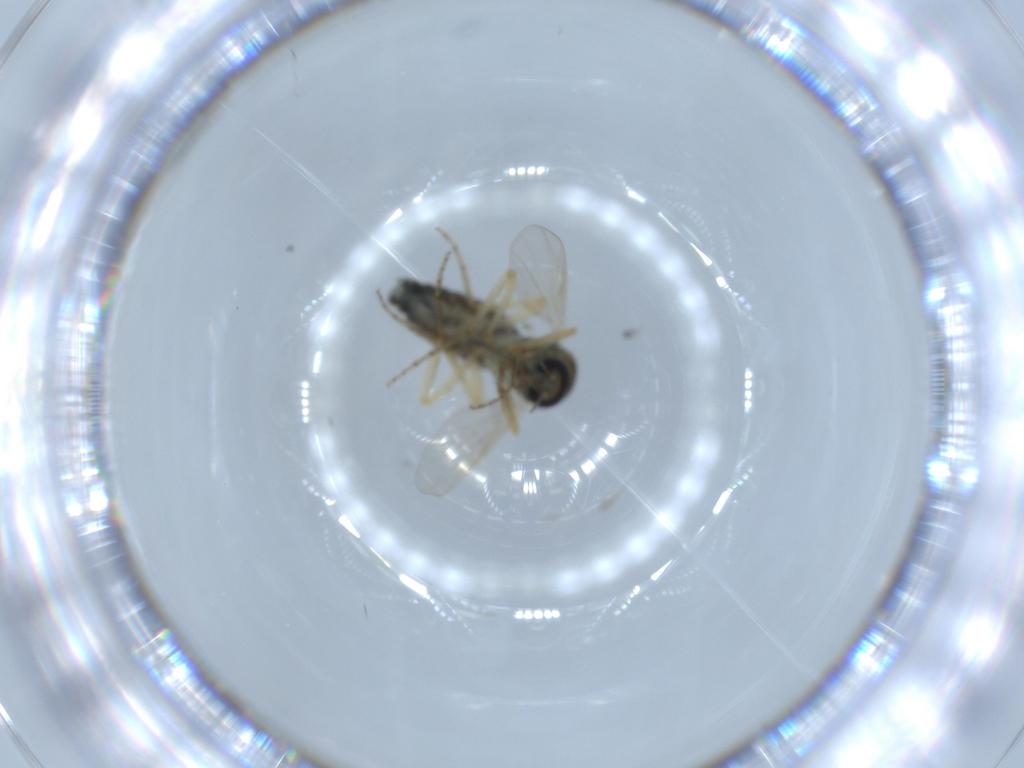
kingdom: Animalia
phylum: Arthropoda
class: Insecta
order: Diptera
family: Ceratopogonidae
